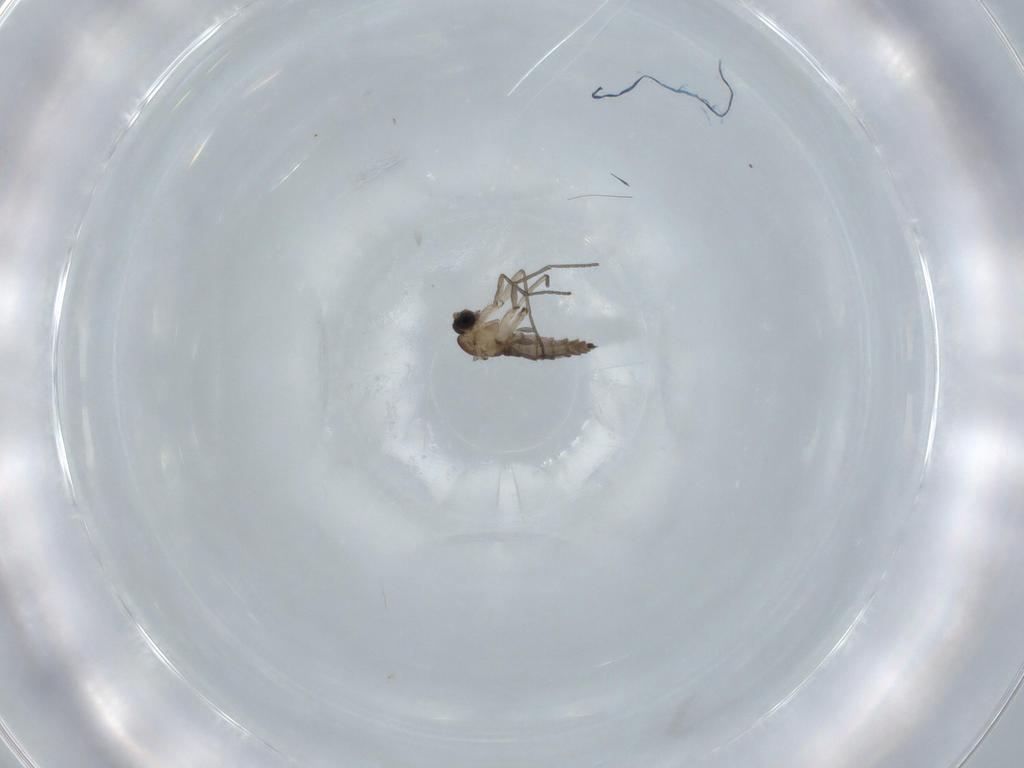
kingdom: Animalia
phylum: Arthropoda
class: Insecta
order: Diptera
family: Sciaridae
